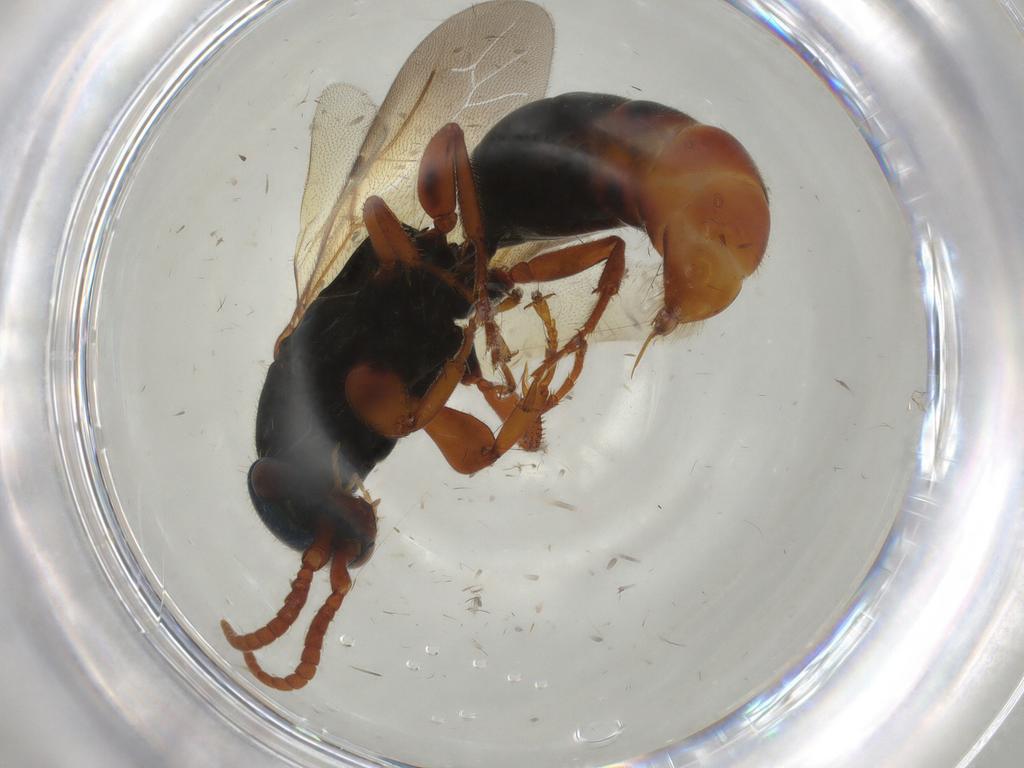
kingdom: Animalia
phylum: Arthropoda
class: Insecta
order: Hymenoptera
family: Bethylidae
